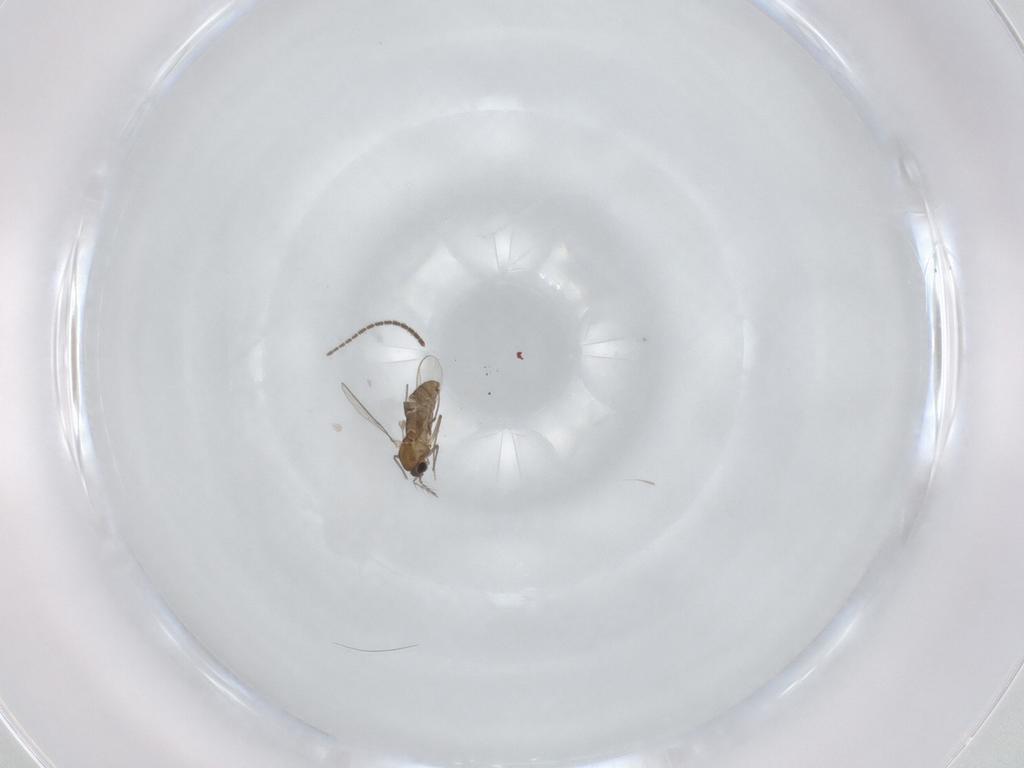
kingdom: Animalia
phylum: Arthropoda
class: Insecta
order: Diptera
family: Chironomidae
